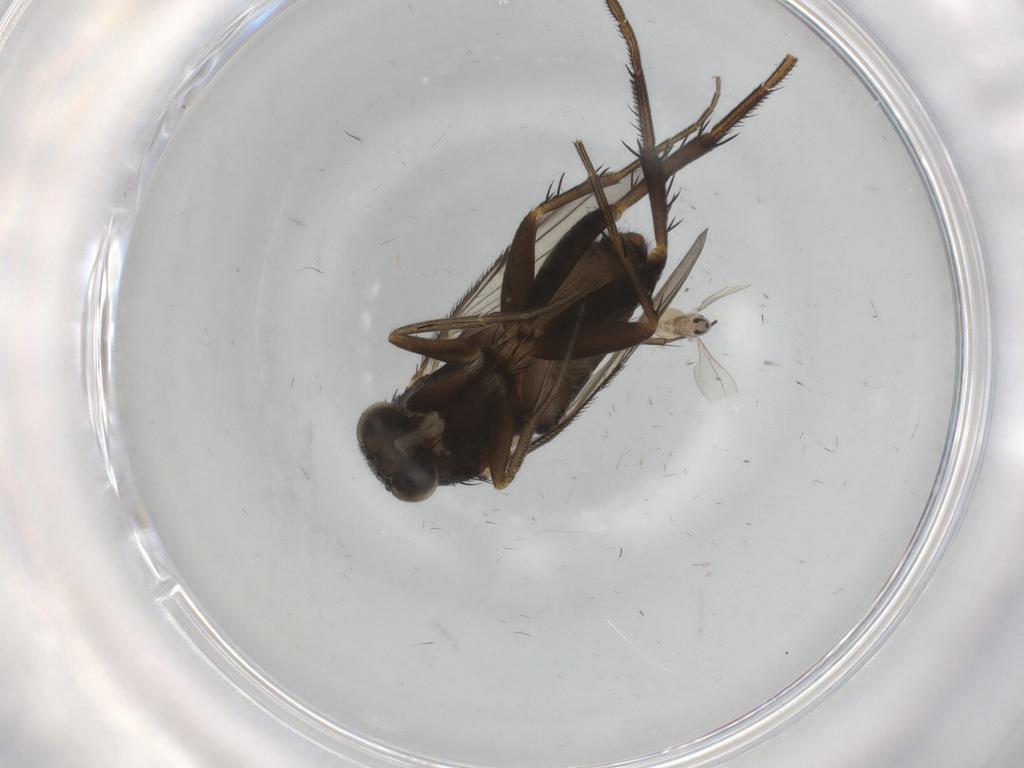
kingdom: Animalia
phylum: Arthropoda
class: Insecta
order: Diptera
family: Phoridae
